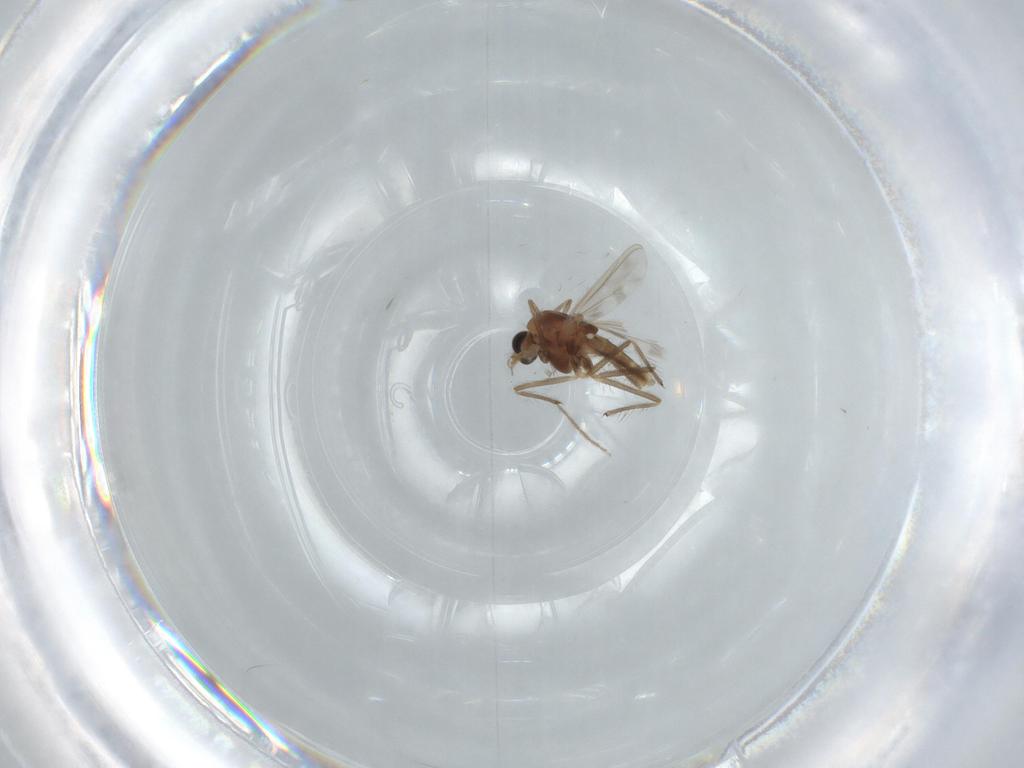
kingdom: Animalia
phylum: Arthropoda
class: Insecta
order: Diptera
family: Chironomidae
